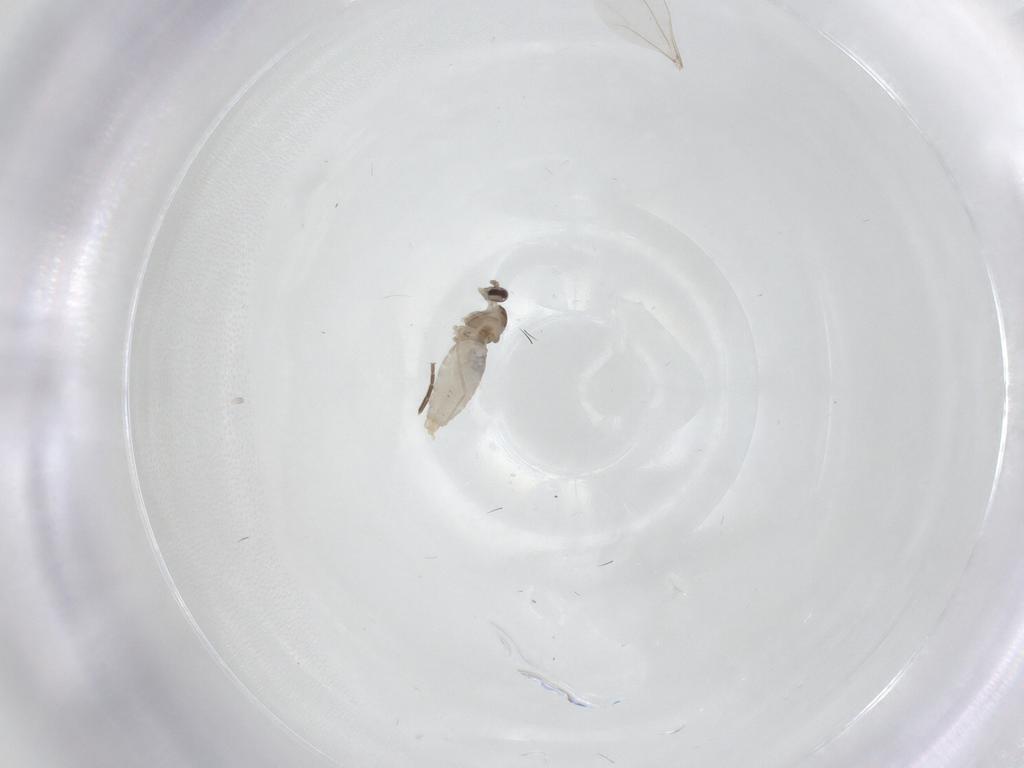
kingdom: Animalia
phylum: Arthropoda
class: Insecta
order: Diptera
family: Cecidomyiidae
